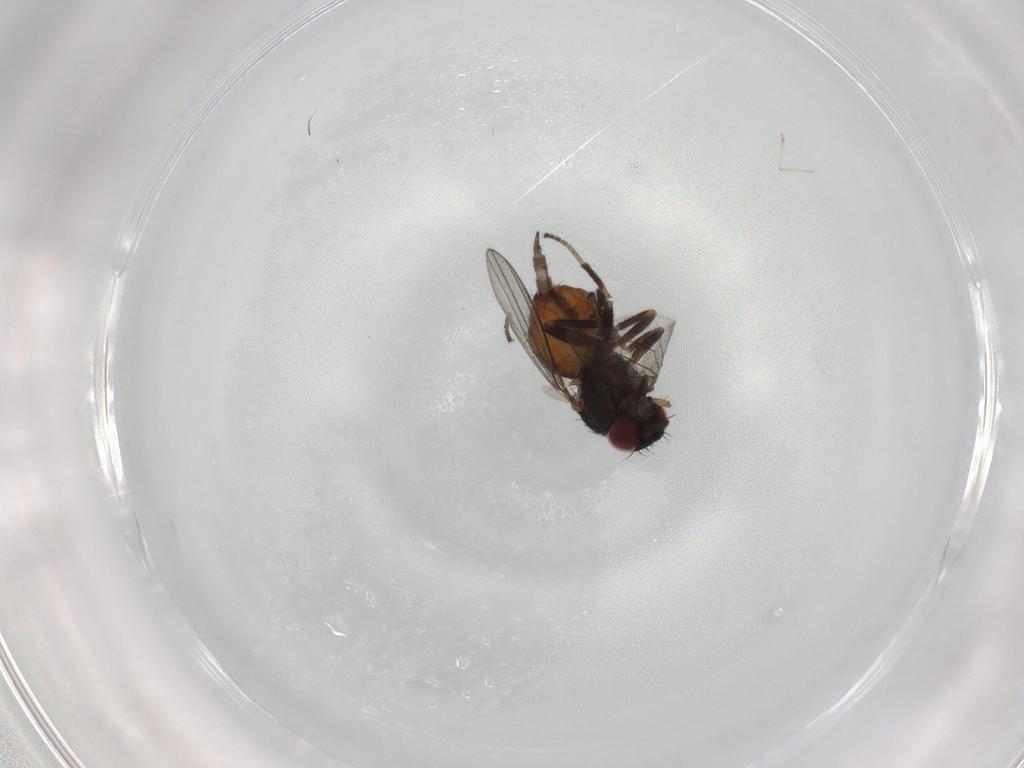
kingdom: Animalia
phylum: Arthropoda
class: Insecta
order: Diptera
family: Milichiidae
